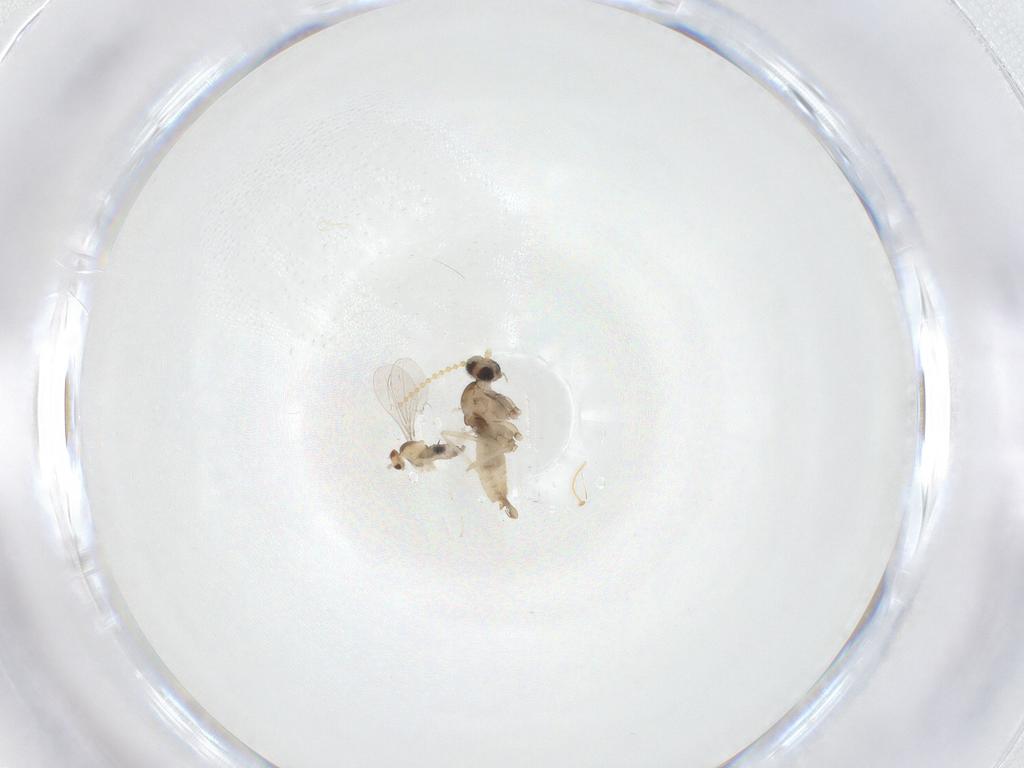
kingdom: Animalia
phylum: Arthropoda
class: Insecta
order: Diptera
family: Cecidomyiidae
